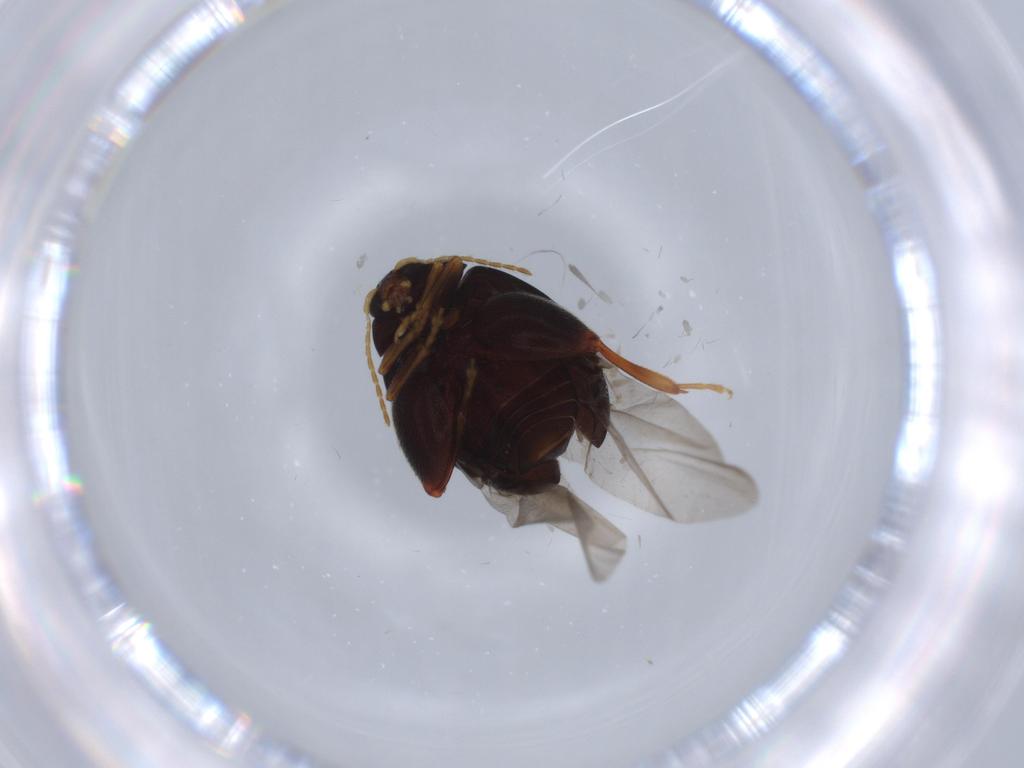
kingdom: Animalia
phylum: Arthropoda
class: Insecta
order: Coleoptera
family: Chrysomelidae
